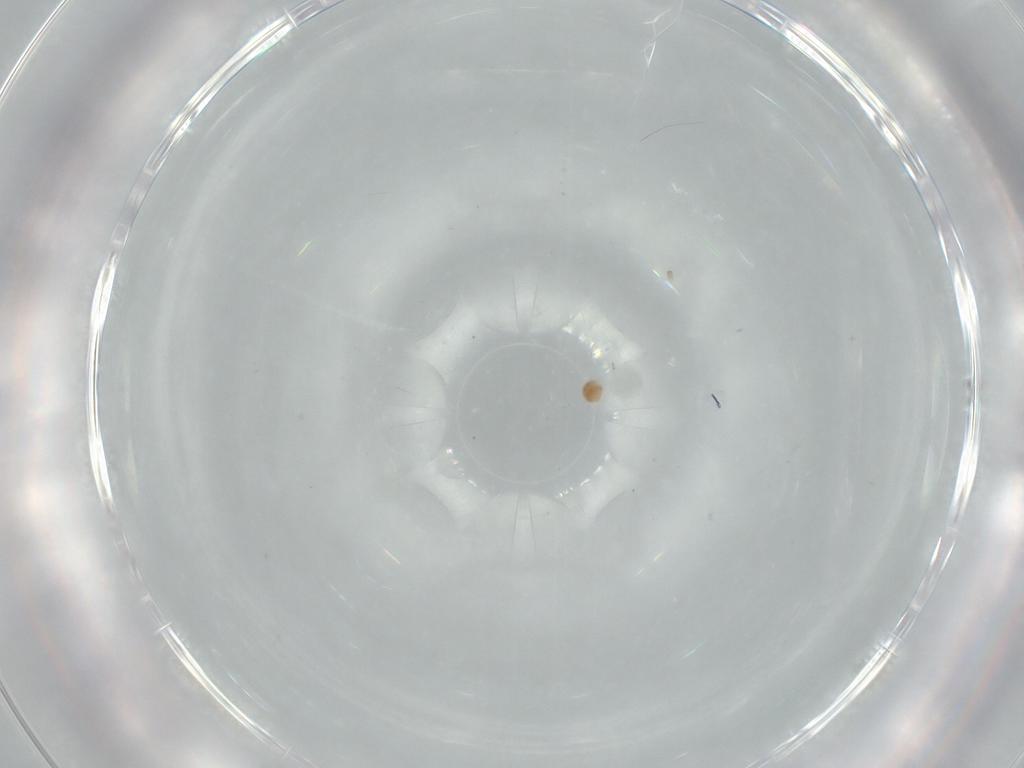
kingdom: Animalia
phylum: Arthropoda
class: Arachnida
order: Trombidiformes
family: Scutacaridae
